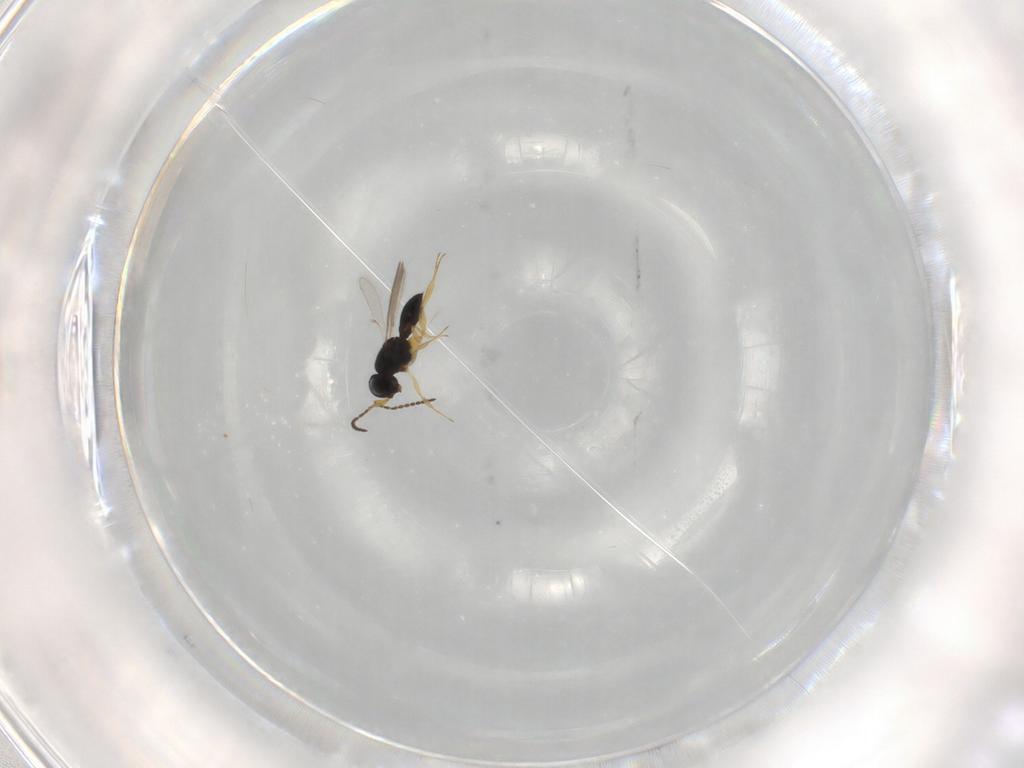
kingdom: Animalia
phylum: Arthropoda
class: Insecta
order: Hymenoptera
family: Scelionidae
